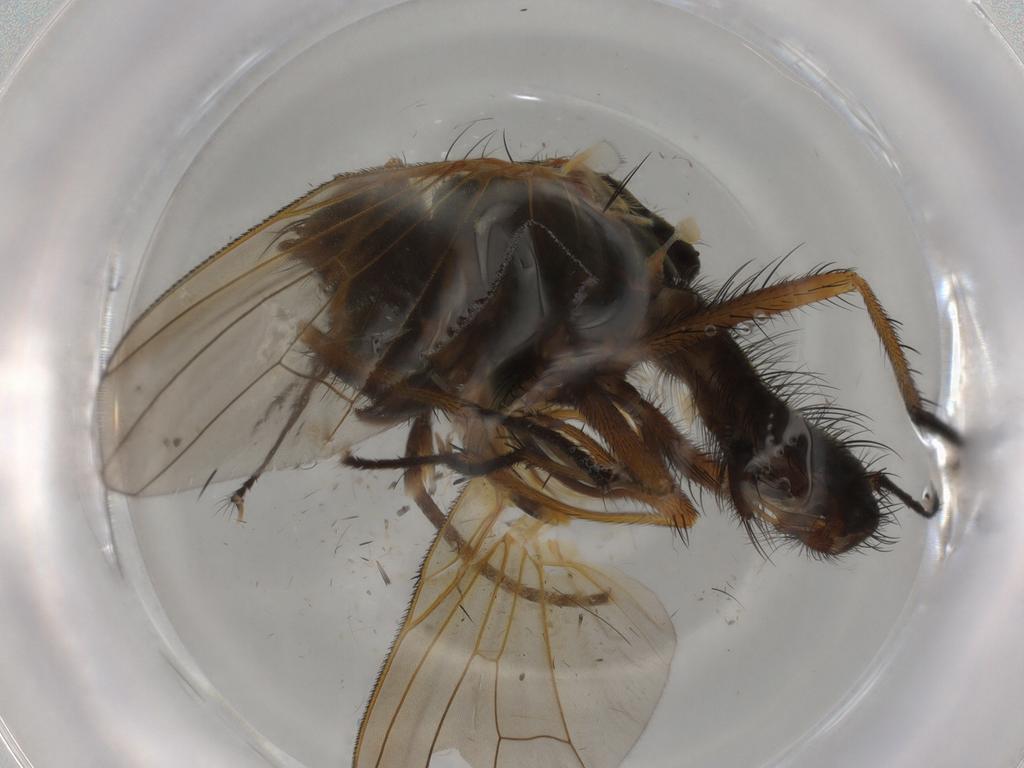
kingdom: Animalia
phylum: Arthropoda
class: Insecta
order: Diptera
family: Anthomyiidae
